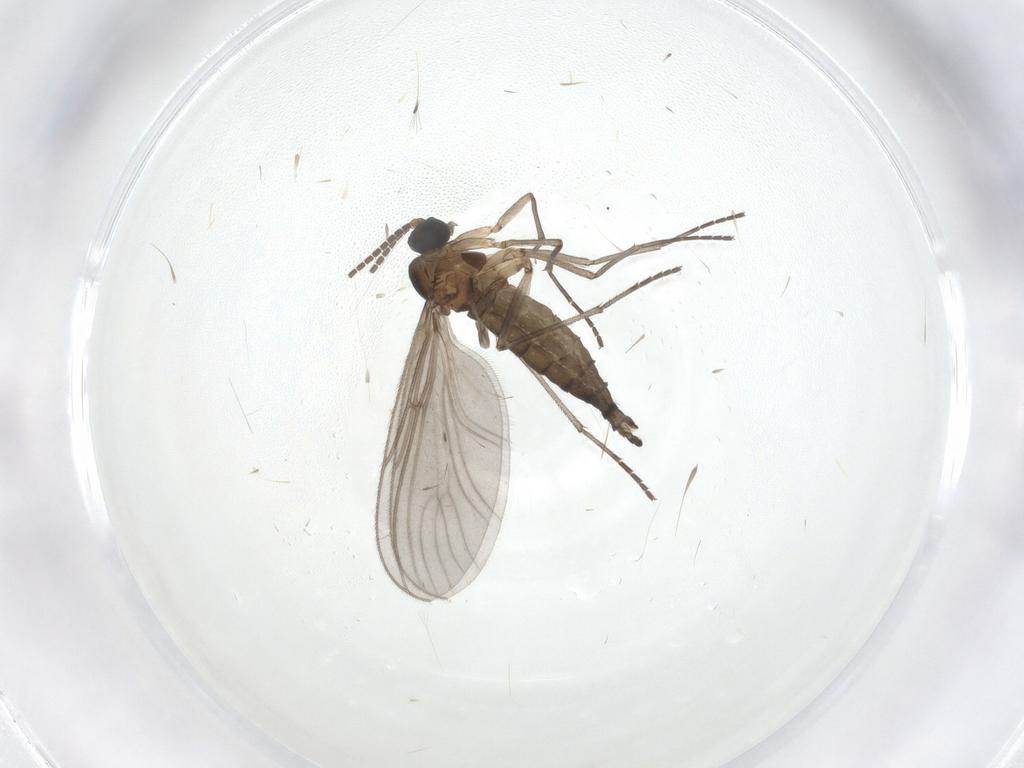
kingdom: Animalia
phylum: Arthropoda
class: Insecta
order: Diptera
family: Sciaridae
